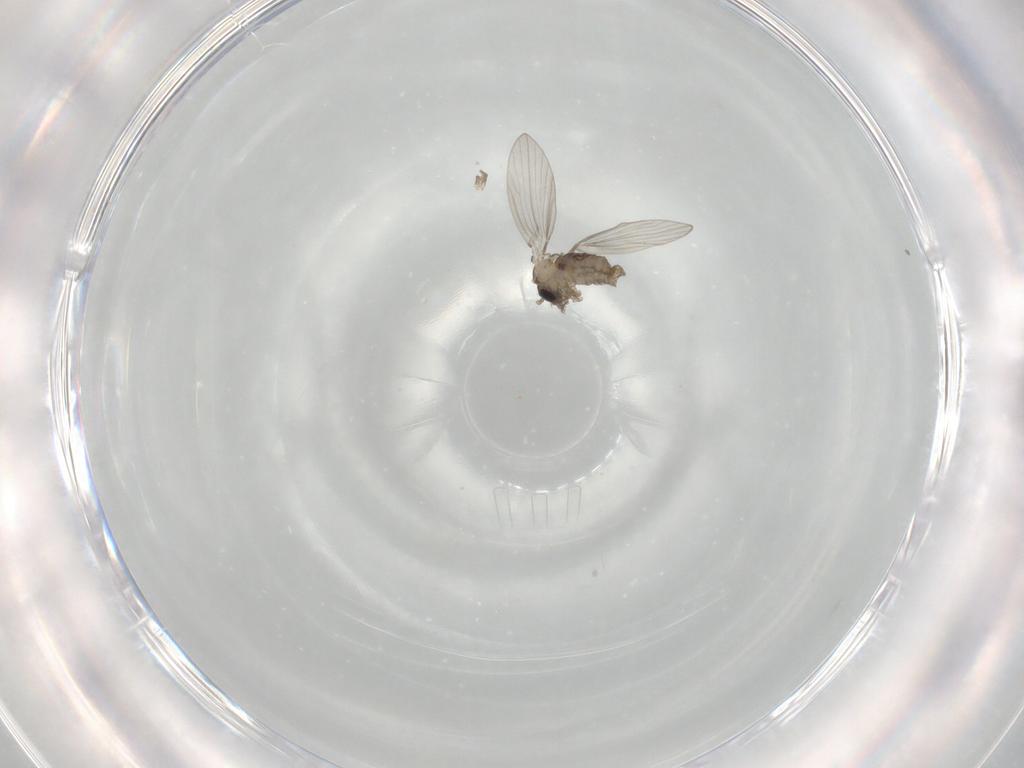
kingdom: Animalia
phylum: Arthropoda
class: Insecta
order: Diptera
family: Psychodidae
